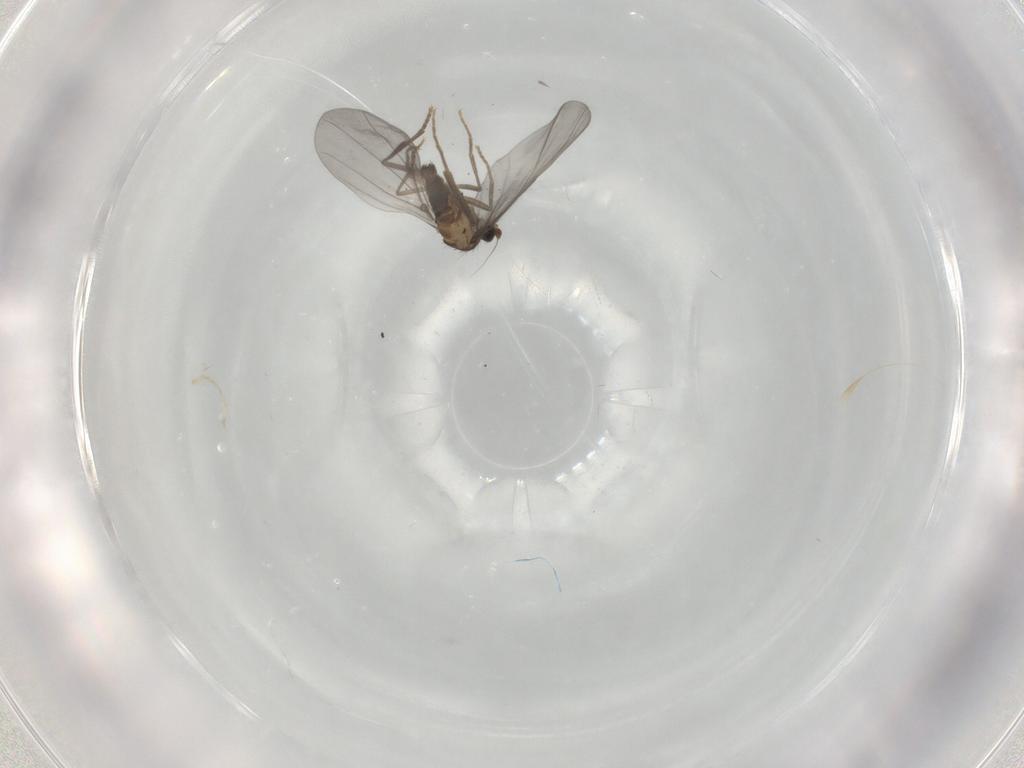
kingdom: Animalia
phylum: Arthropoda
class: Insecta
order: Diptera
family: Phoridae
